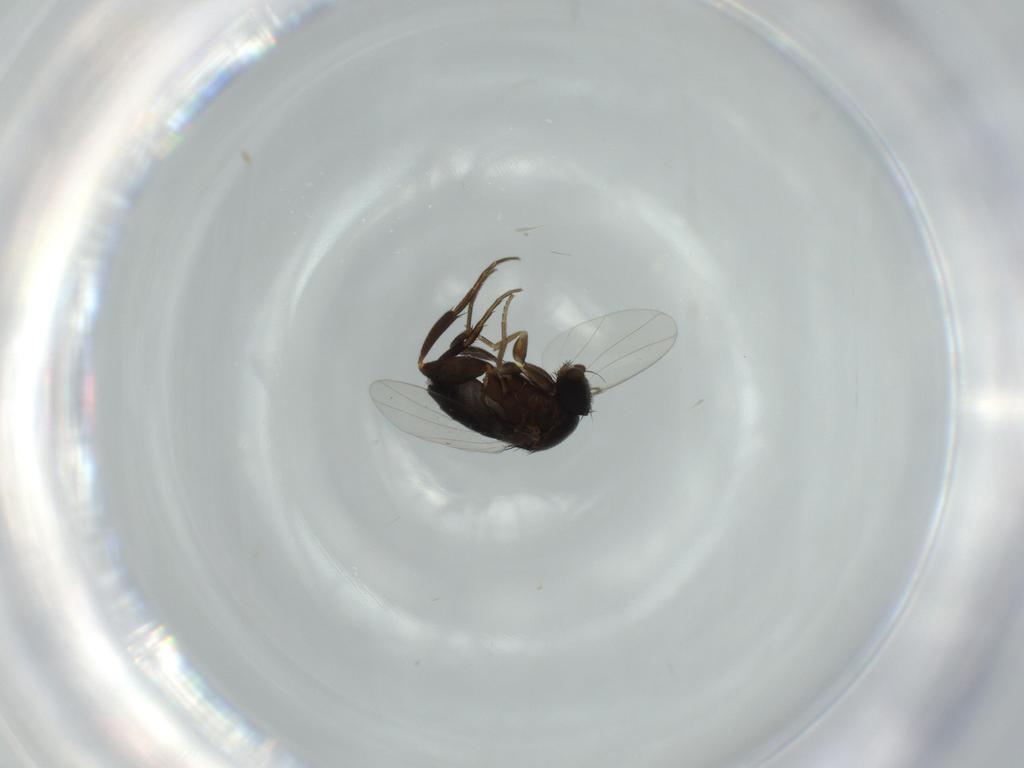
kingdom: Animalia
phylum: Arthropoda
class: Insecta
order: Diptera
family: Phoridae
